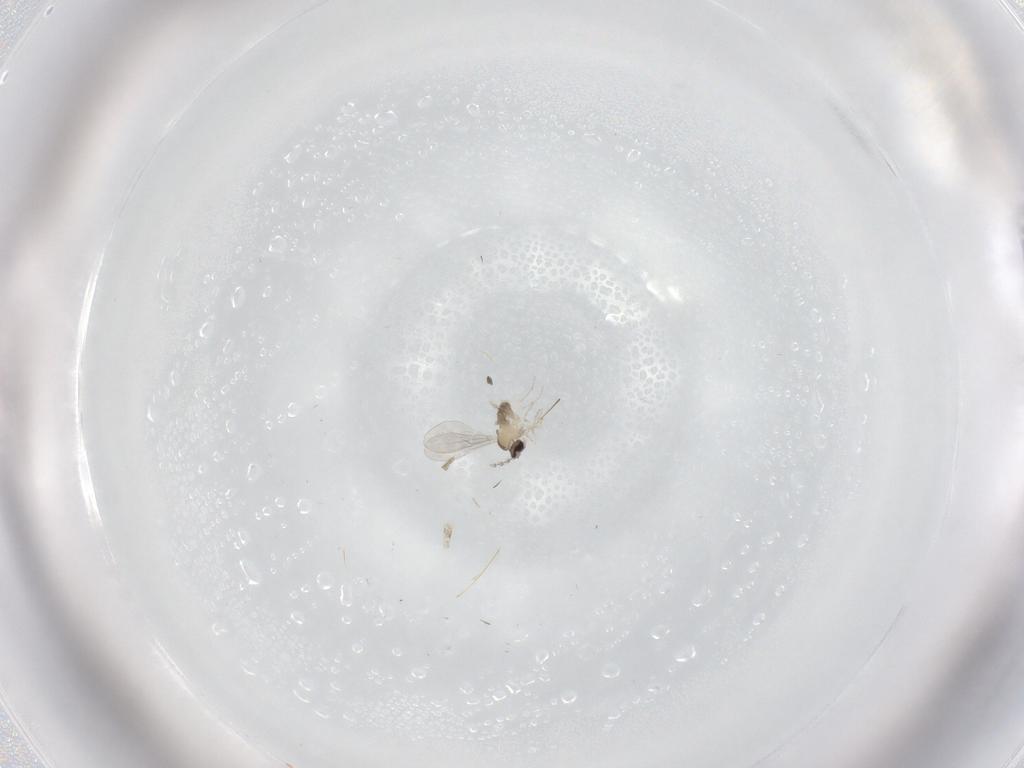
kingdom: Animalia
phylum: Arthropoda
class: Insecta
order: Diptera
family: Cecidomyiidae
